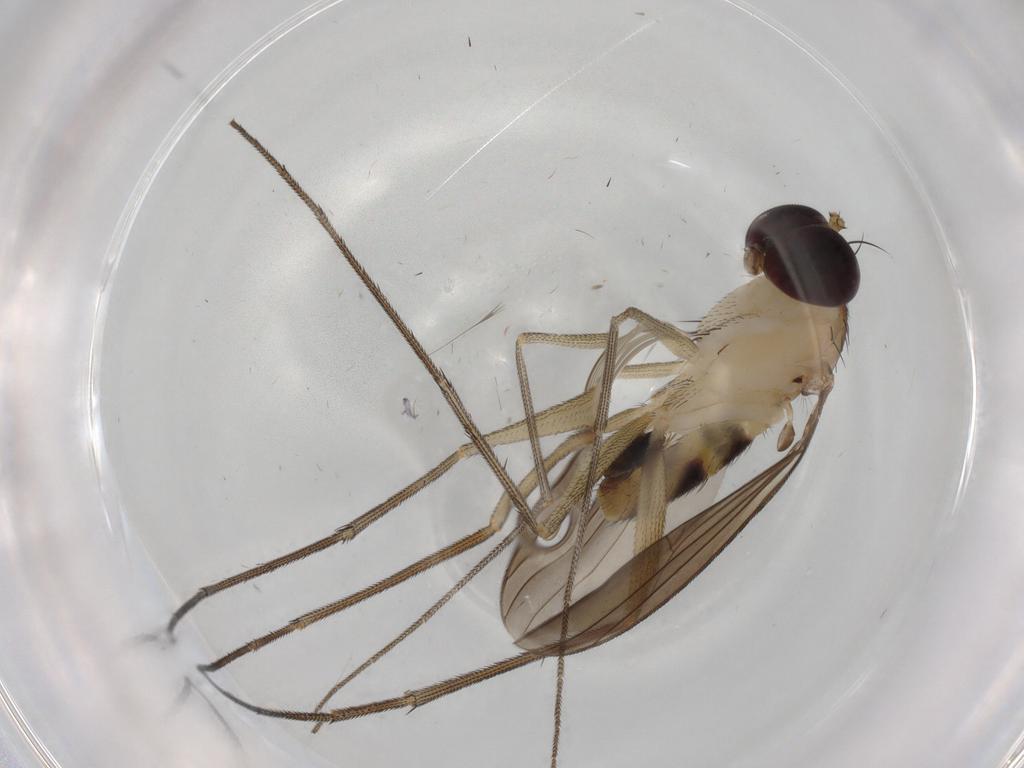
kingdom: Animalia
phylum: Arthropoda
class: Insecta
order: Diptera
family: Dolichopodidae
